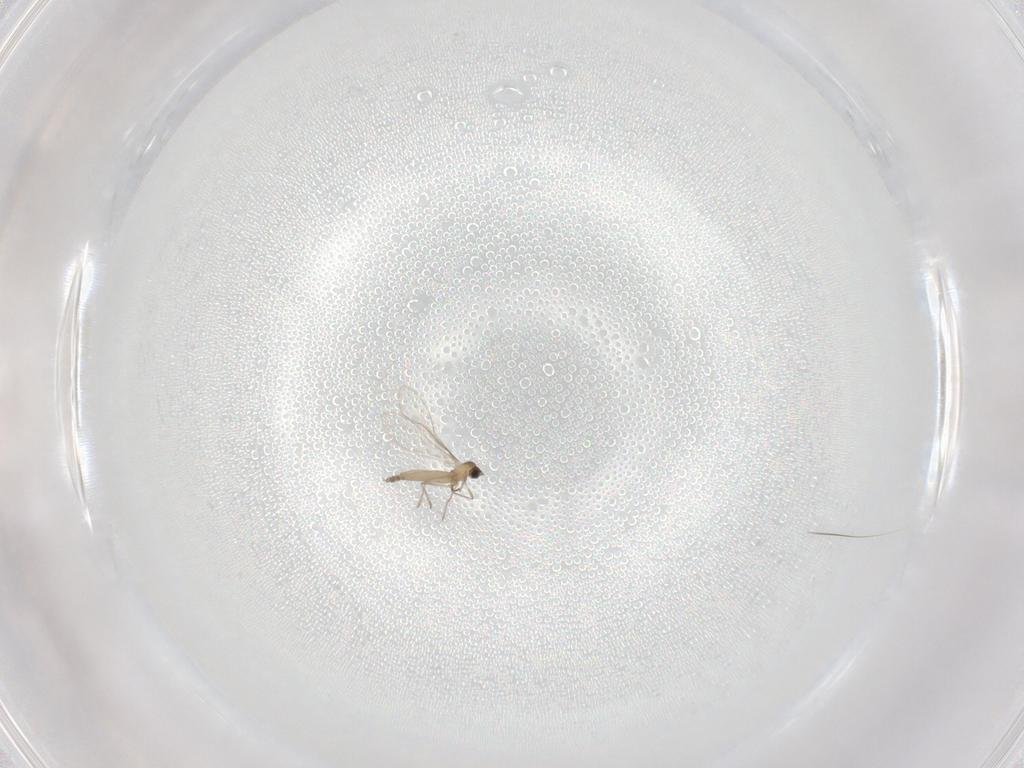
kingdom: Animalia
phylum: Arthropoda
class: Insecta
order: Diptera
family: Cecidomyiidae
